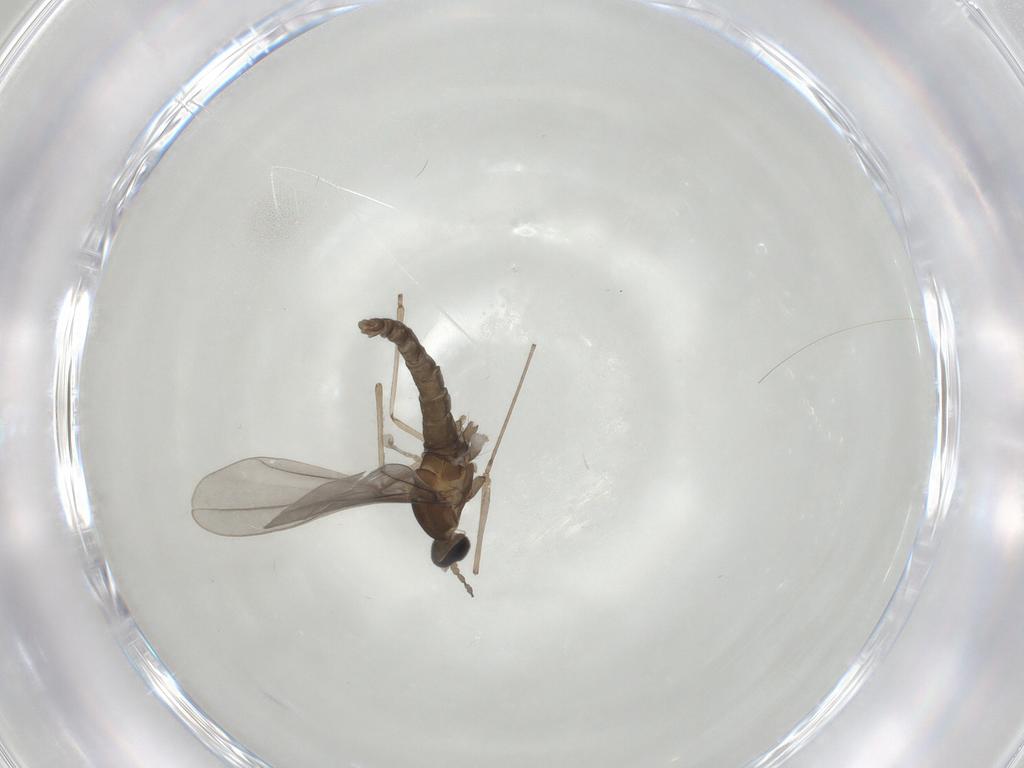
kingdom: Animalia
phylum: Arthropoda
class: Insecta
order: Diptera
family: Cecidomyiidae
